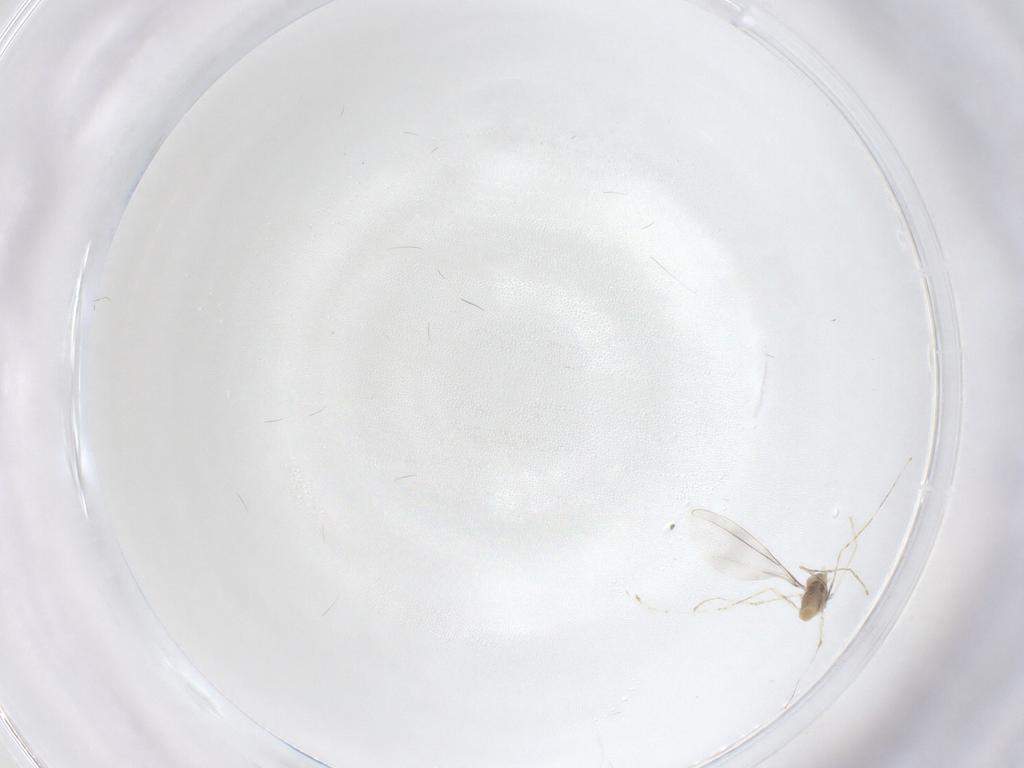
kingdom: Animalia
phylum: Arthropoda
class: Insecta
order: Diptera
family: Cecidomyiidae
